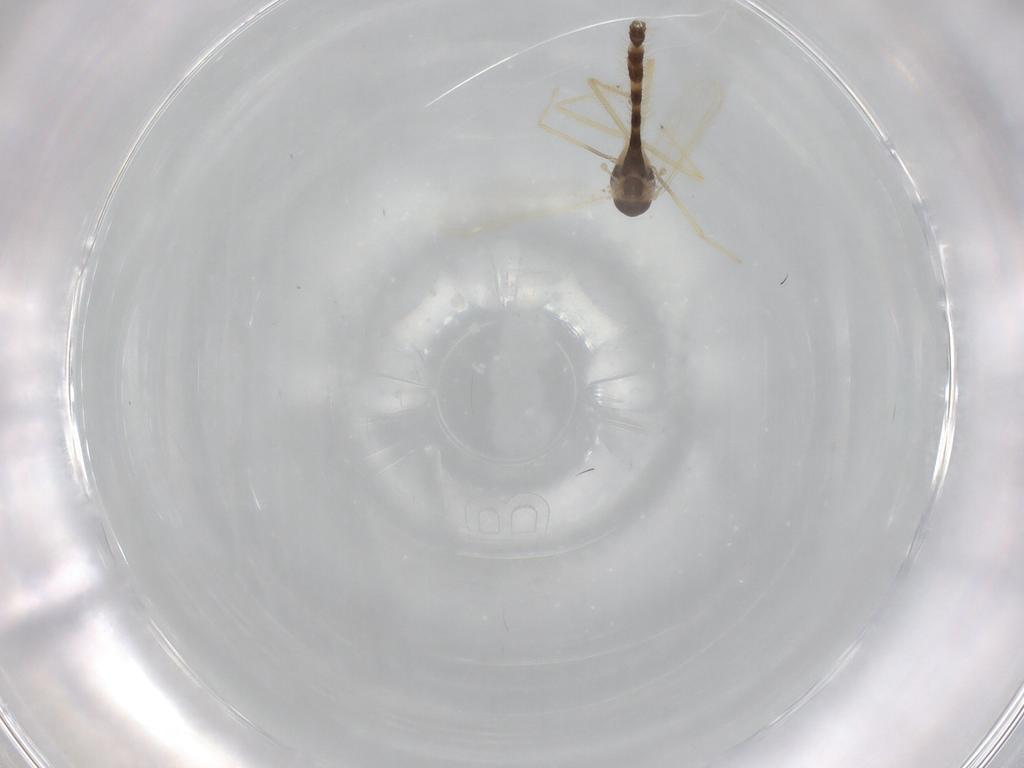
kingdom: Animalia
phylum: Arthropoda
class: Insecta
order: Diptera
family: Chironomidae
